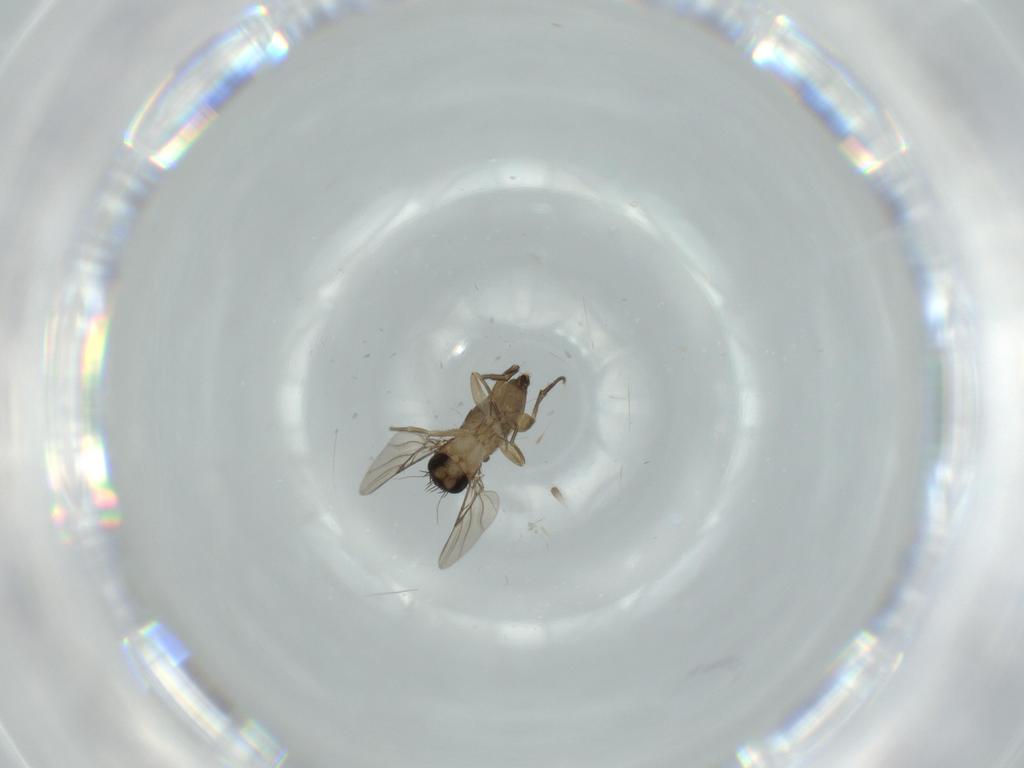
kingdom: Animalia
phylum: Arthropoda
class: Insecta
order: Diptera
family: Phoridae
